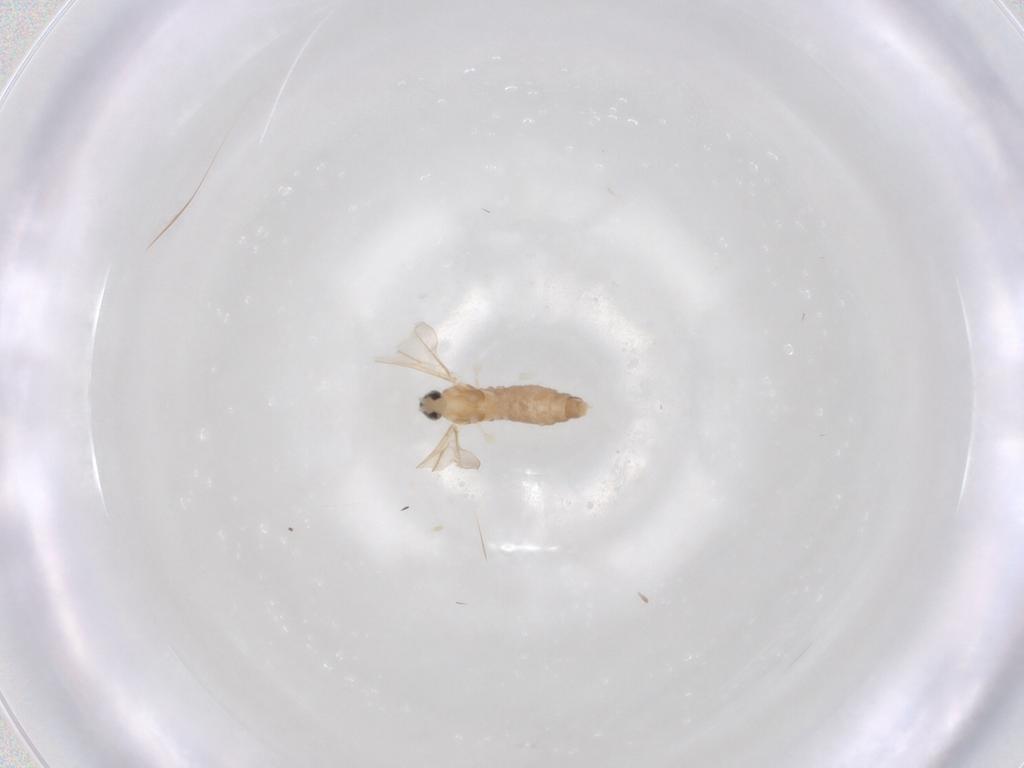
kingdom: Animalia
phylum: Arthropoda
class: Insecta
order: Diptera
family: Cecidomyiidae
